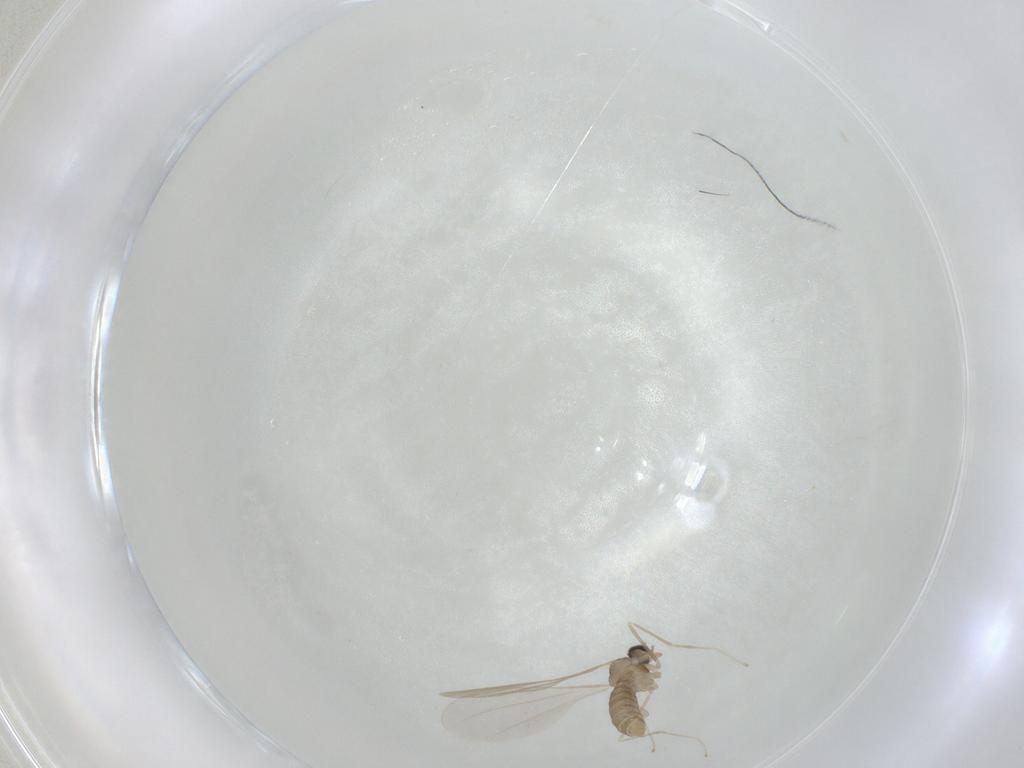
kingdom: Animalia
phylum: Arthropoda
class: Insecta
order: Diptera
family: Cecidomyiidae
